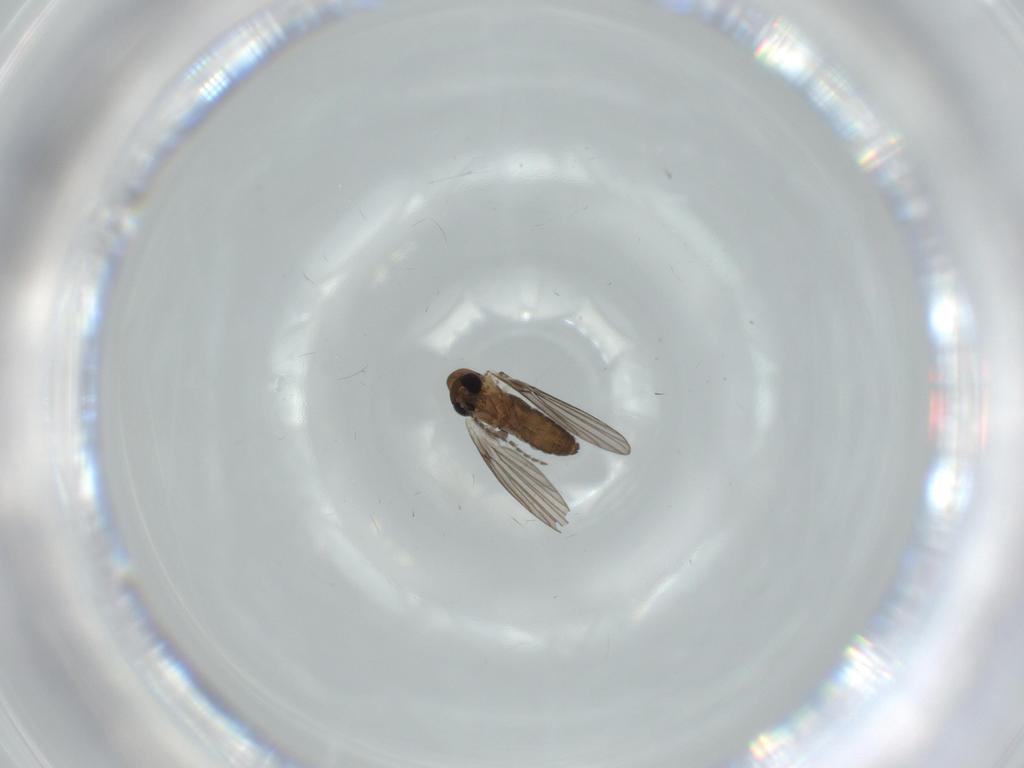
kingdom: Animalia
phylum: Arthropoda
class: Insecta
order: Diptera
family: Psychodidae
